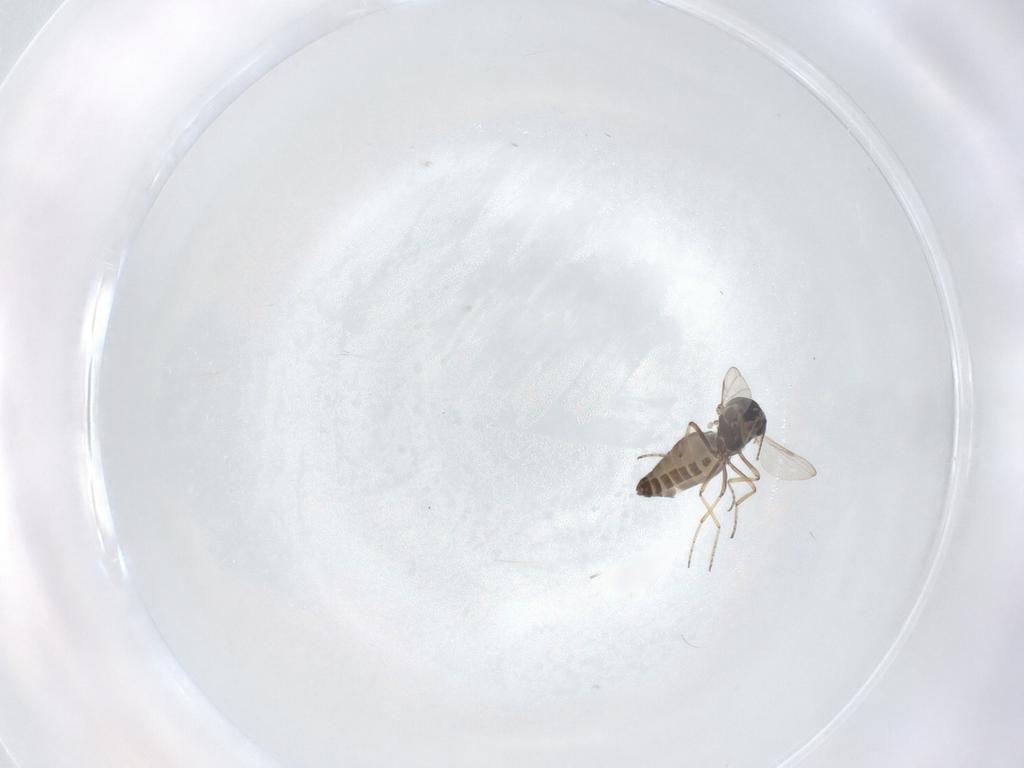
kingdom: Animalia
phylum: Arthropoda
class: Insecta
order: Diptera
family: Ceratopogonidae
